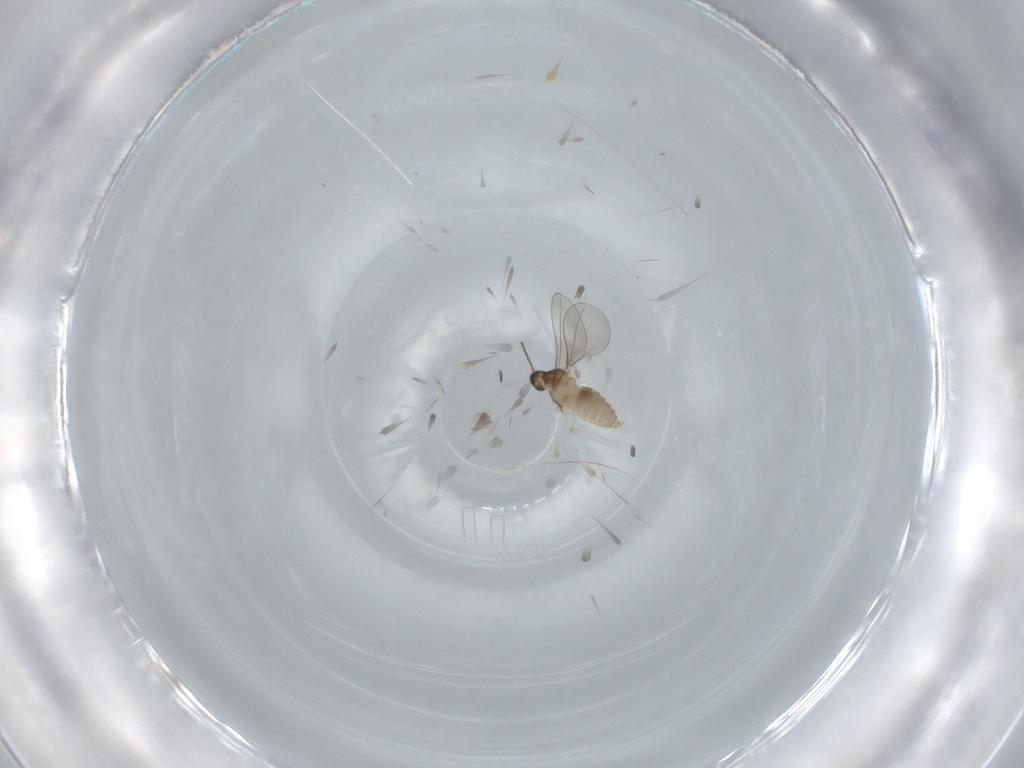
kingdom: Animalia
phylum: Arthropoda
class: Insecta
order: Diptera
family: Cecidomyiidae
